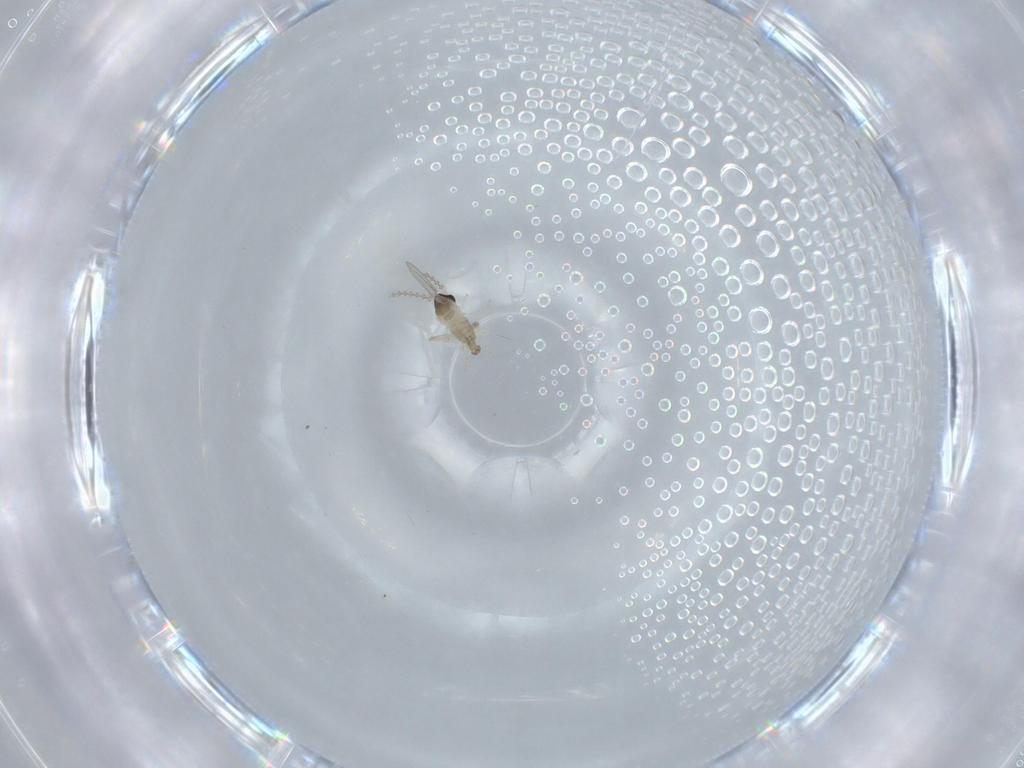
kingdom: Animalia
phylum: Arthropoda
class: Insecta
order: Diptera
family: Cecidomyiidae
